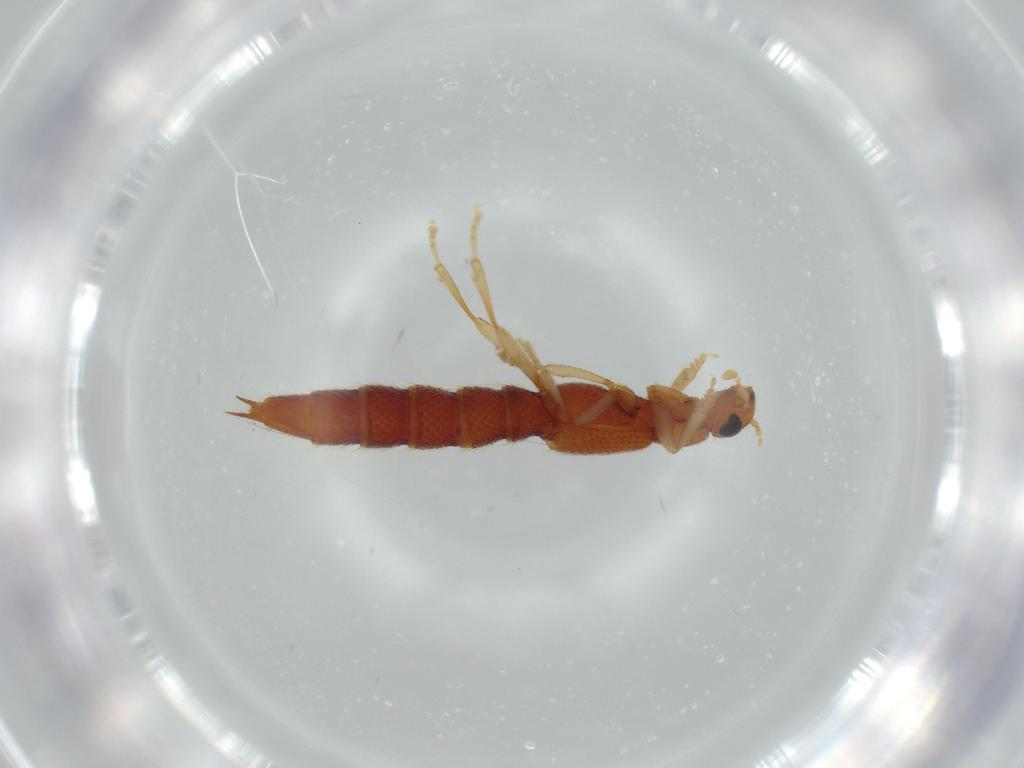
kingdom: Animalia
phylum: Arthropoda
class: Insecta
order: Coleoptera
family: Staphylinidae
